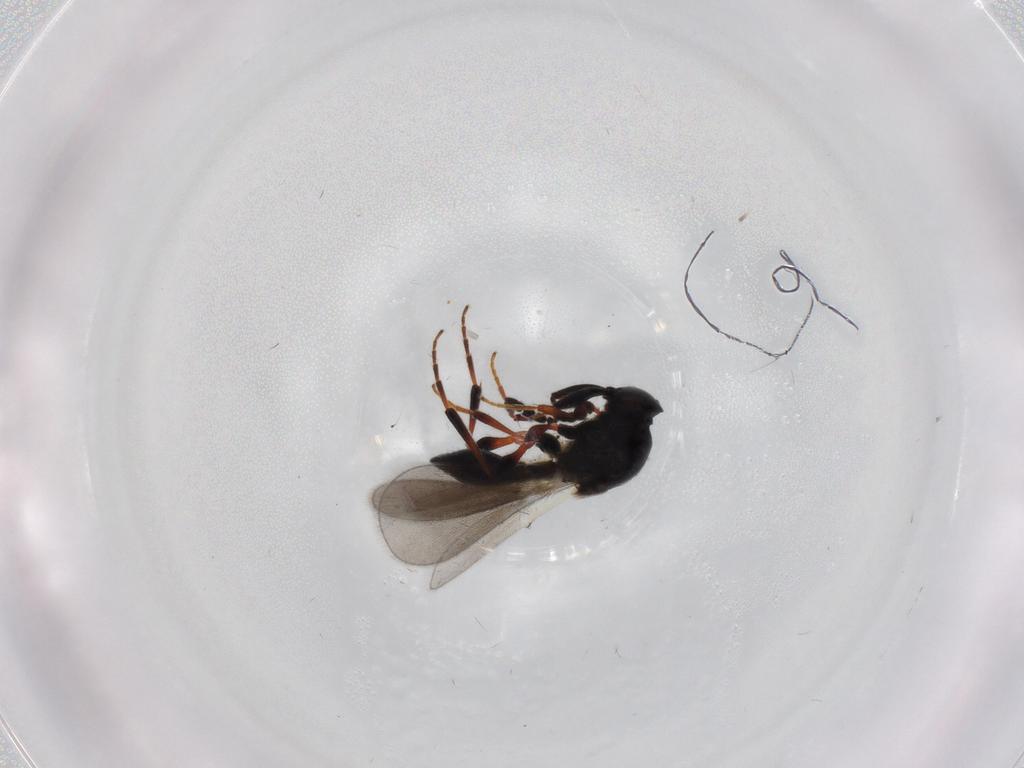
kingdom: Animalia
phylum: Arthropoda
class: Insecta
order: Hymenoptera
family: Platygastridae
